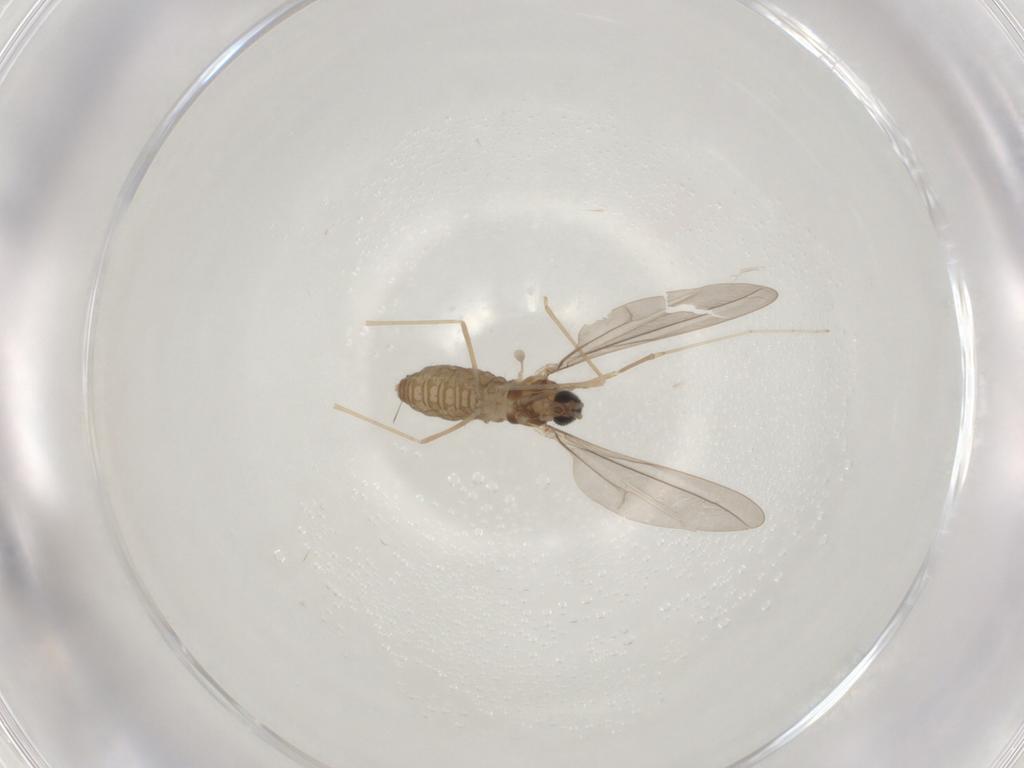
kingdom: Animalia
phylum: Arthropoda
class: Insecta
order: Diptera
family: Cecidomyiidae
